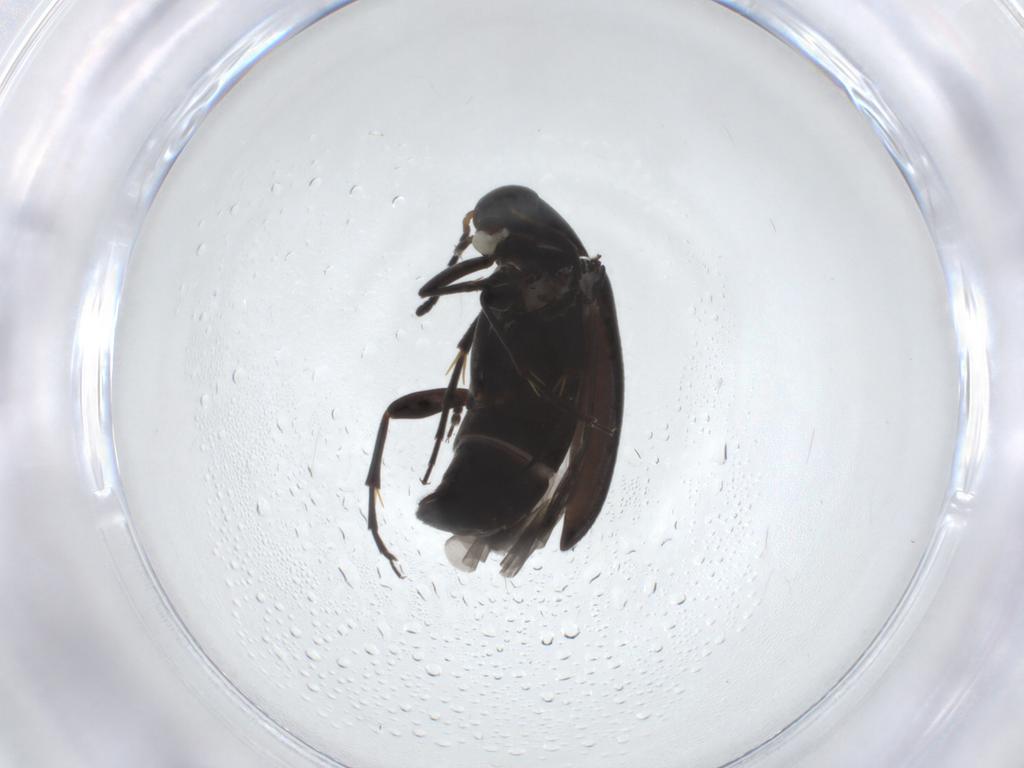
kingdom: Animalia
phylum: Arthropoda
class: Insecta
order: Coleoptera
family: Scraptiidae
